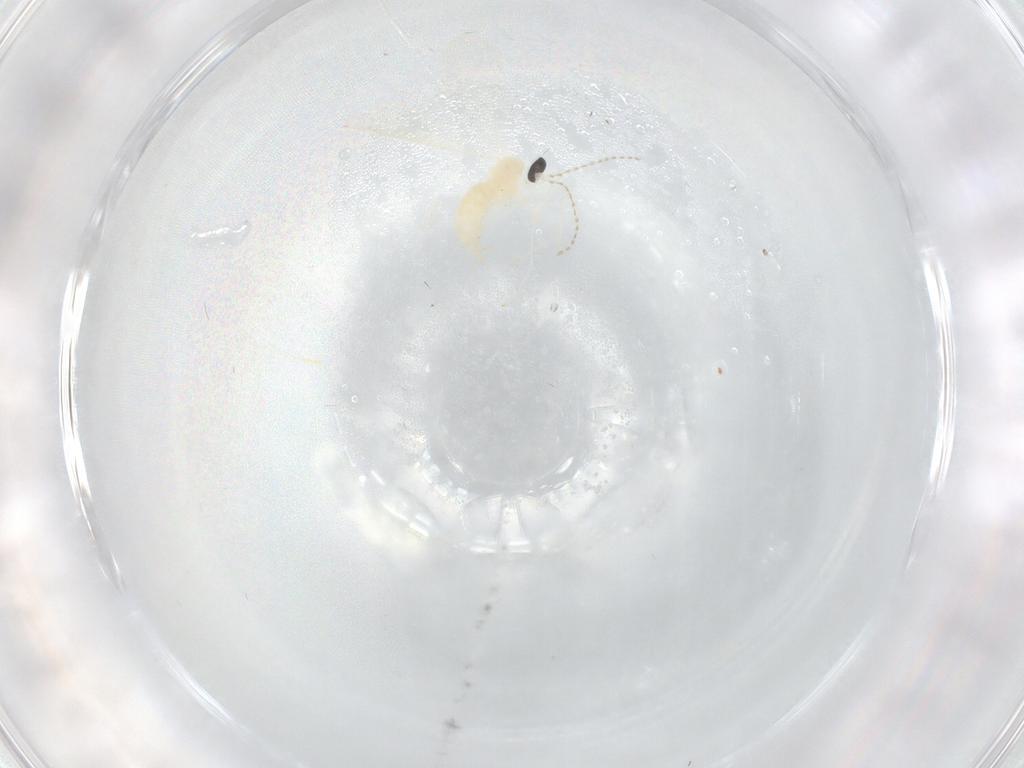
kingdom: Animalia
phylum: Arthropoda
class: Insecta
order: Diptera
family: Cecidomyiidae
